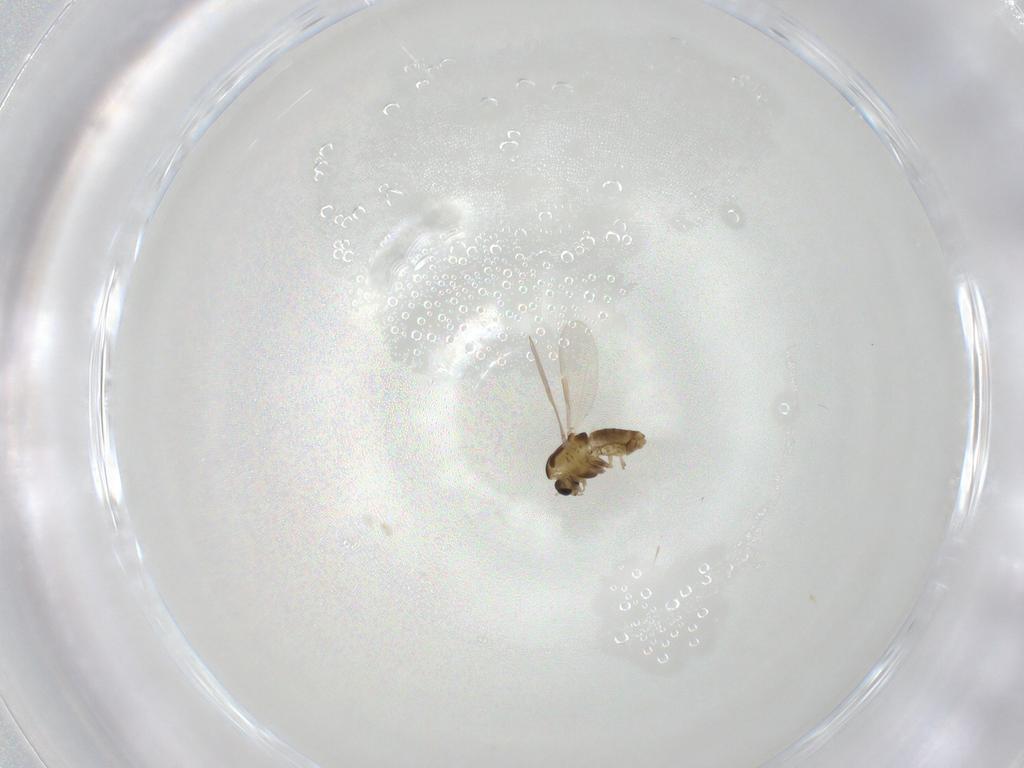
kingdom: Animalia
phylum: Arthropoda
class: Insecta
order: Diptera
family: Chironomidae
